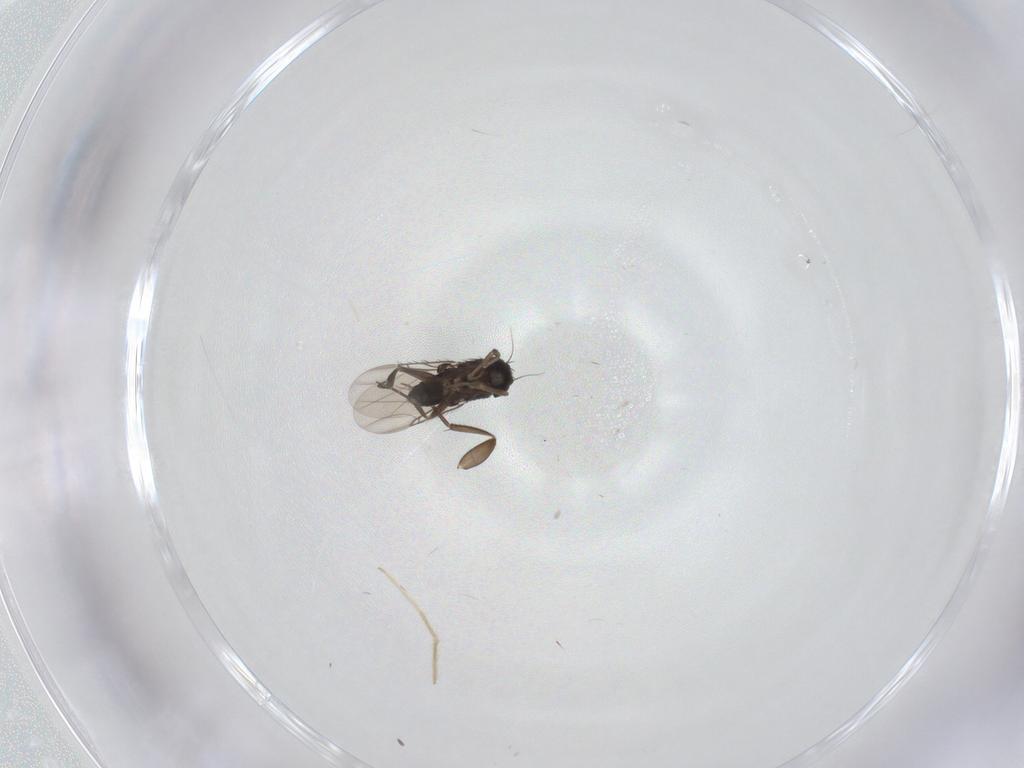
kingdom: Animalia
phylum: Arthropoda
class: Insecta
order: Diptera
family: Phoridae
